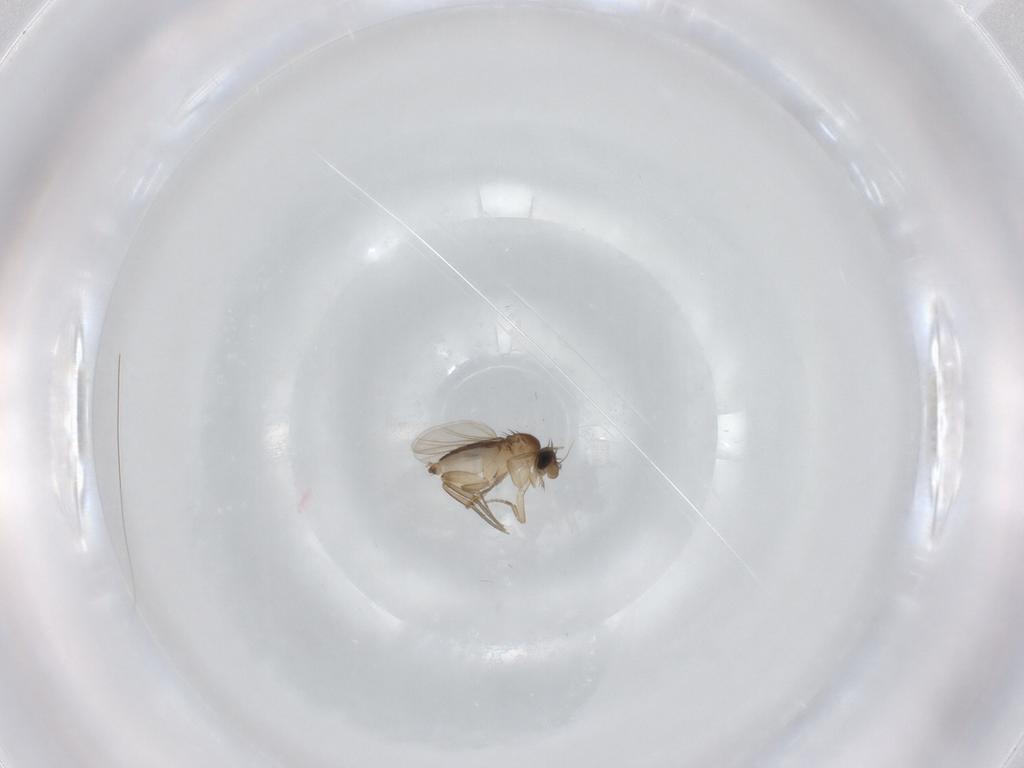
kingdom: Animalia
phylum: Arthropoda
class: Insecta
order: Diptera
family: Phoridae
